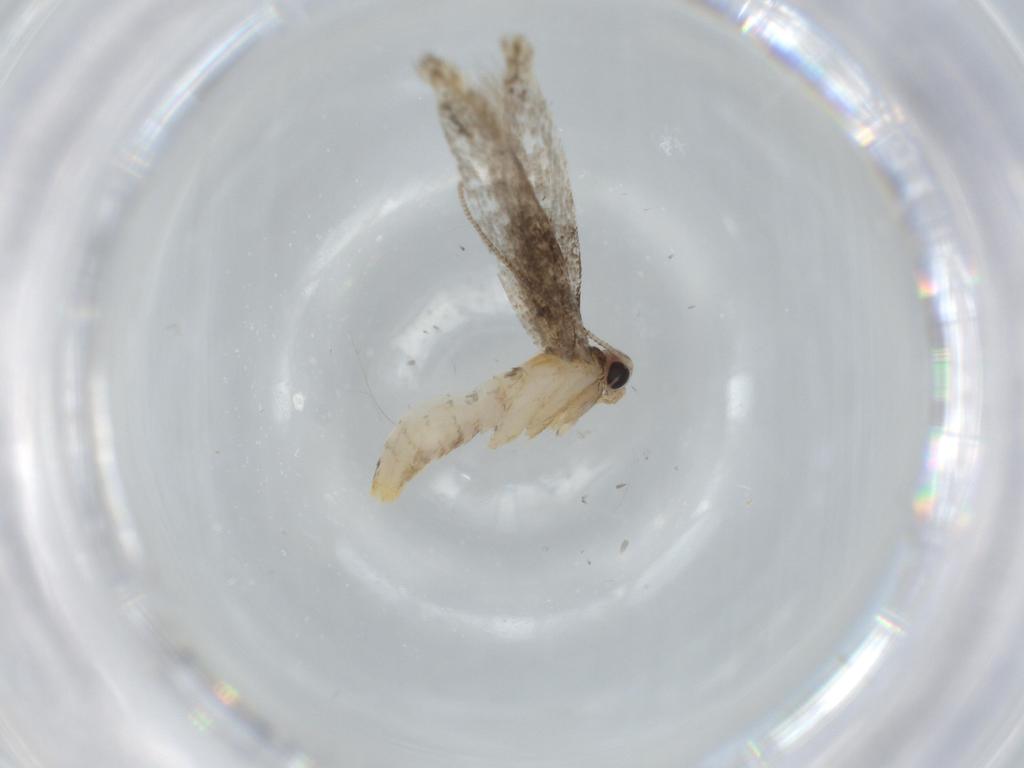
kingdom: Animalia
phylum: Arthropoda
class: Insecta
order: Lepidoptera
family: Tineidae
